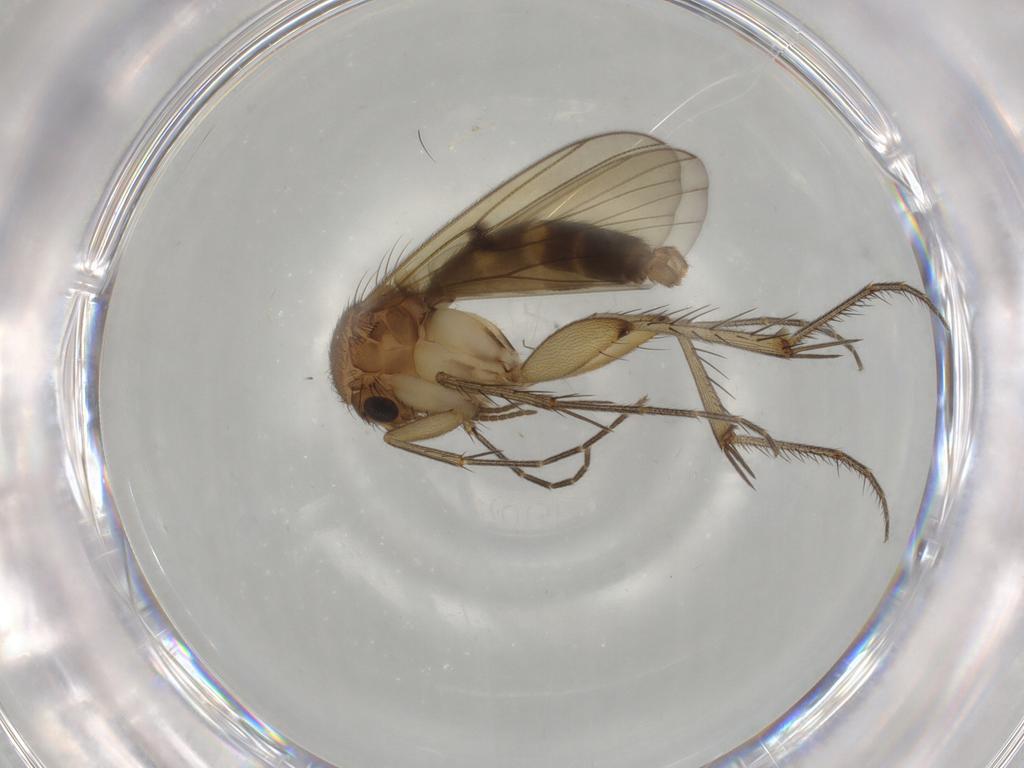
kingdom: Animalia
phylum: Arthropoda
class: Insecta
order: Diptera
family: Mycetophilidae
